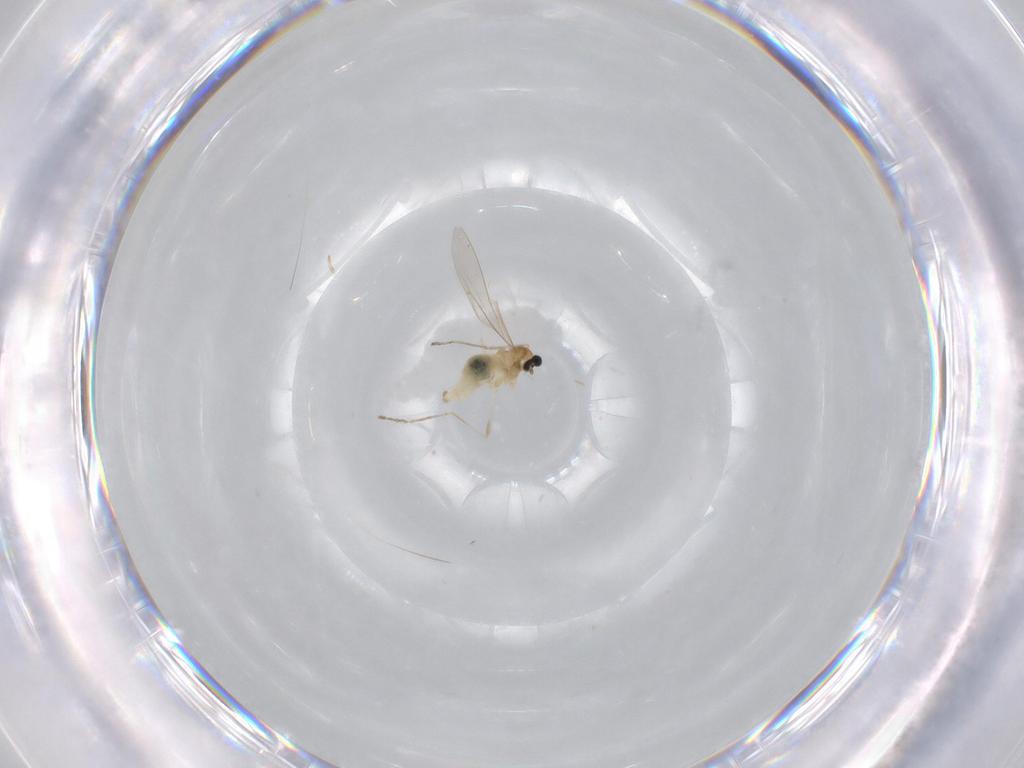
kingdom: Animalia
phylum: Arthropoda
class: Insecta
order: Diptera
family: Cecidomyiidae
